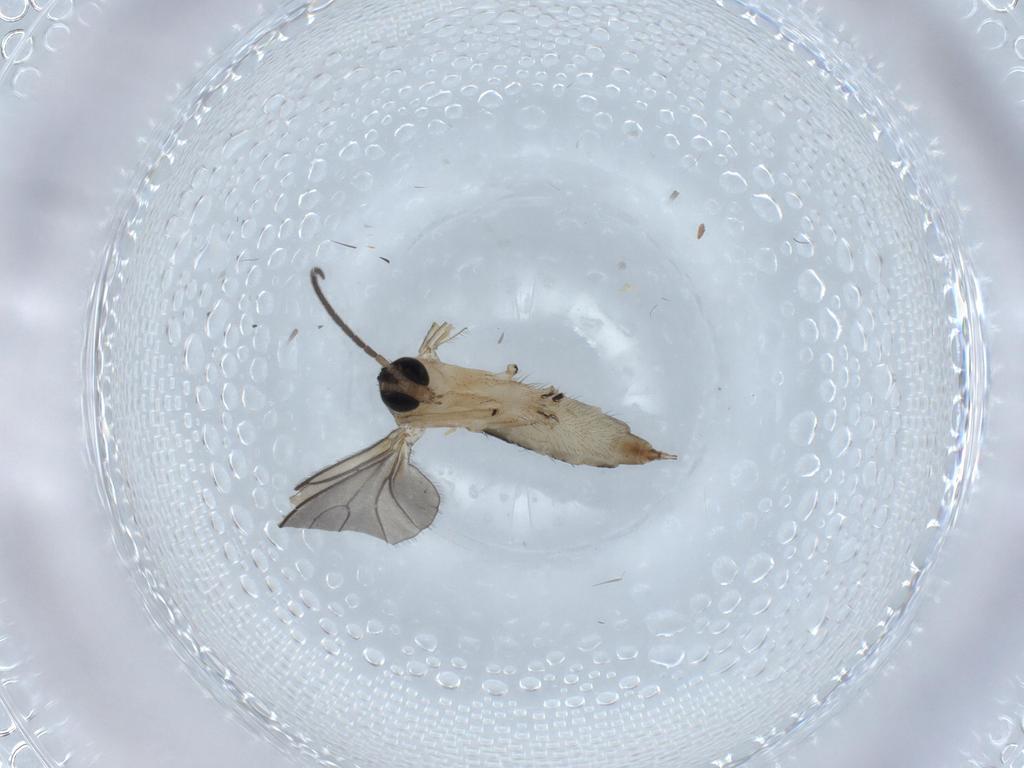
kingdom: Animalia
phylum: Arthropoda
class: Insecta
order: Diptera
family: Sciaridae
